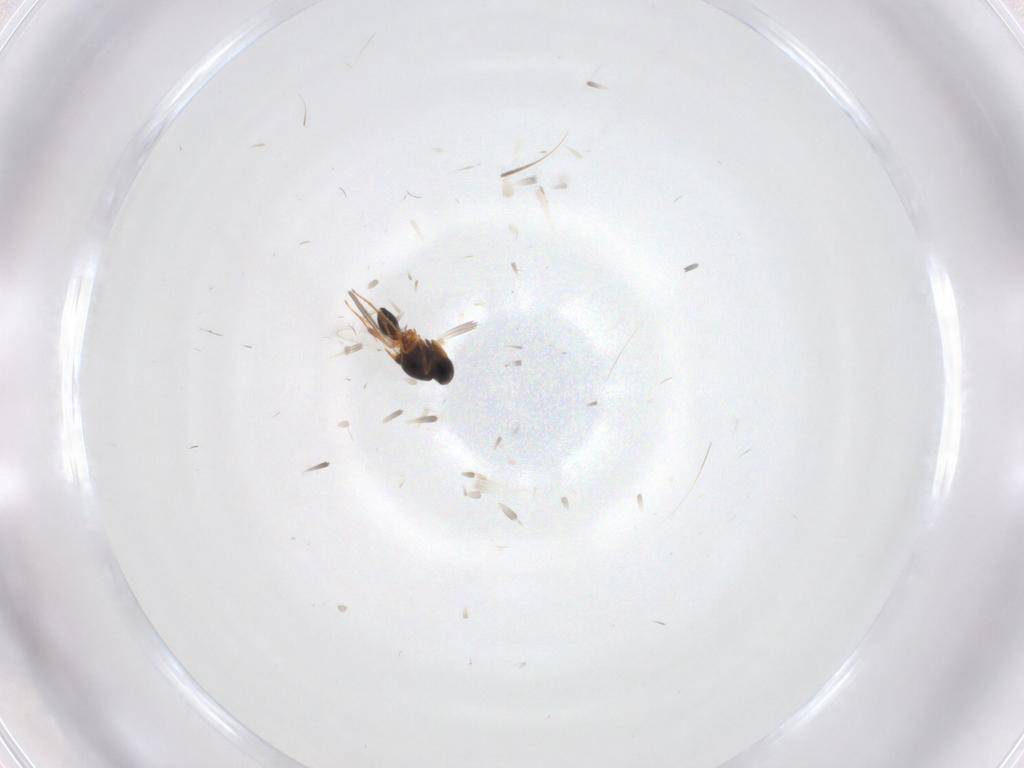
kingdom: Animalia
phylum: Arthropoda
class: Insecta
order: Hymenoptera
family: Platygastridae
